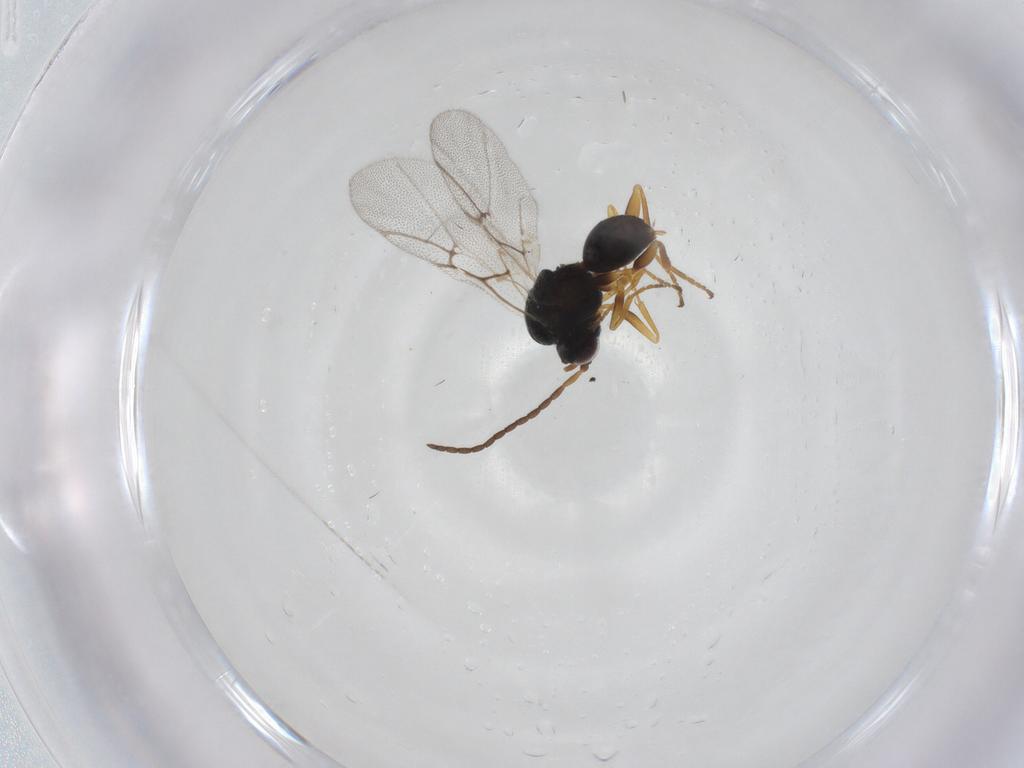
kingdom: Animalia
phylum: Arthropoda
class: Insecta
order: Hymenoptera
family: Cynipidae
